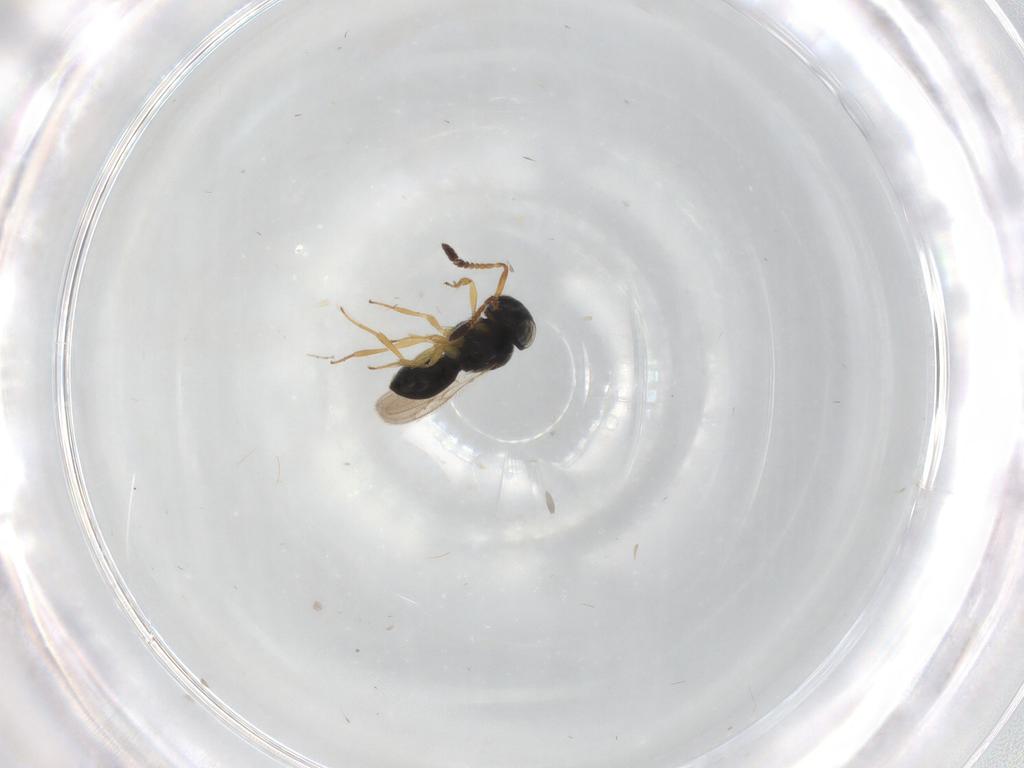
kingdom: Animalia
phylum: Arthropoda
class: Insecta
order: Hymenoptera
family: Scelionidae
